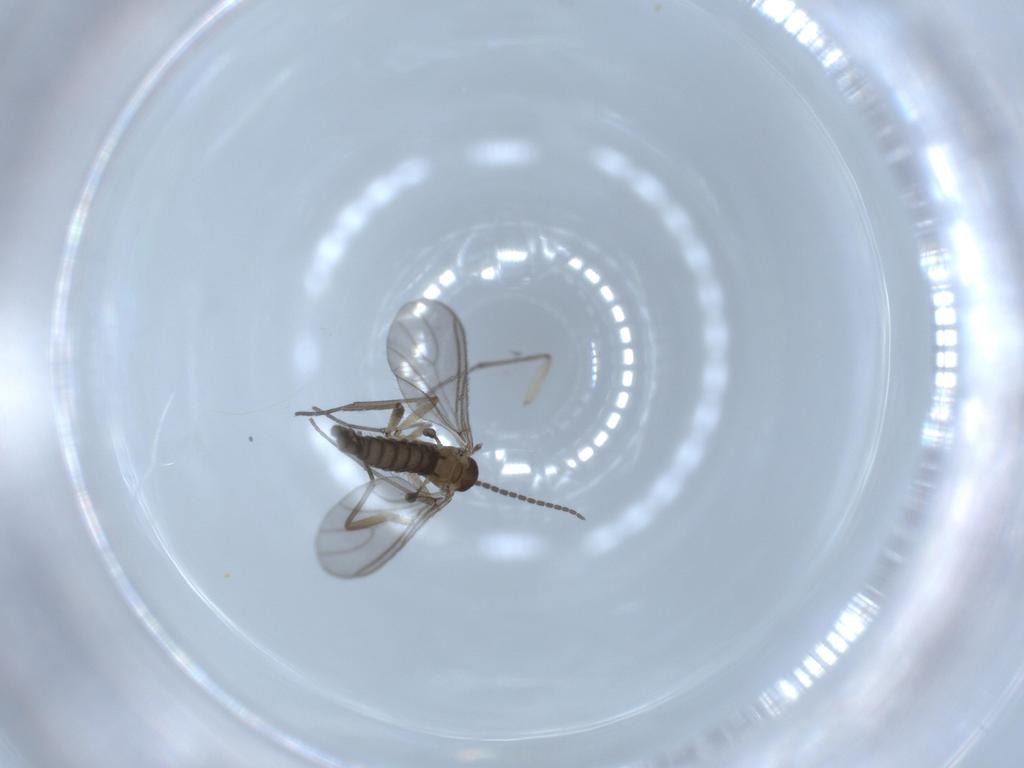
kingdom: Animalia
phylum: Arthropoda
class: Insecta
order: Diptera
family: Sciaridae
